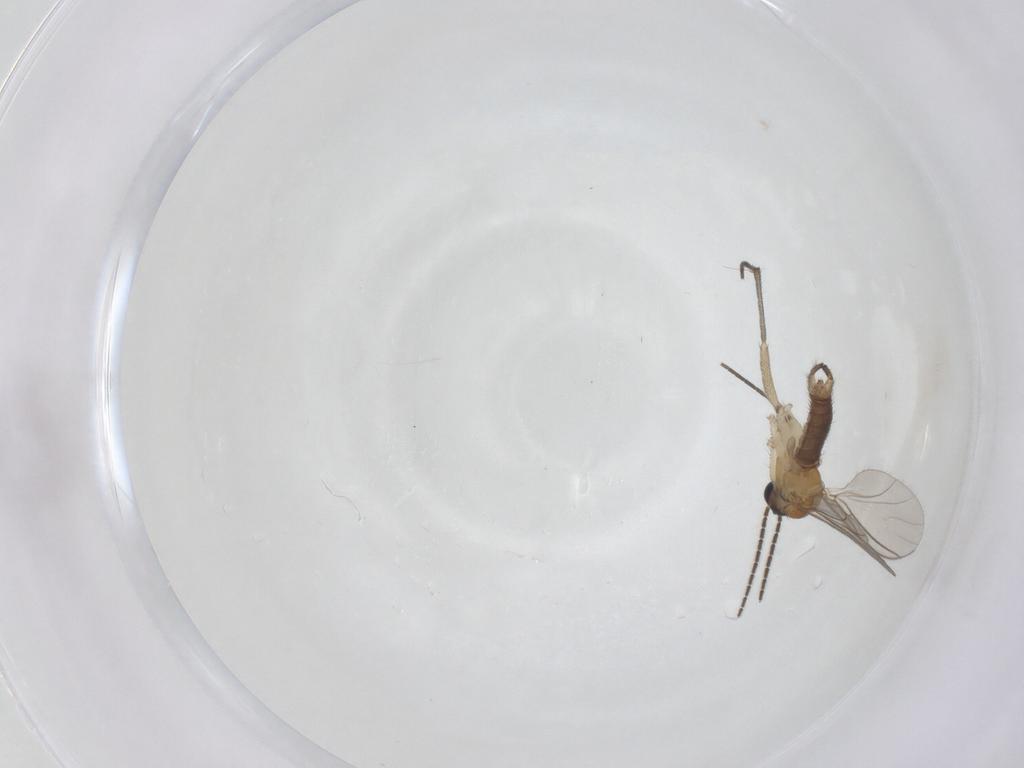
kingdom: Animalia
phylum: Arthropoda
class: Insecta
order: Diptera
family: Sciaridae
